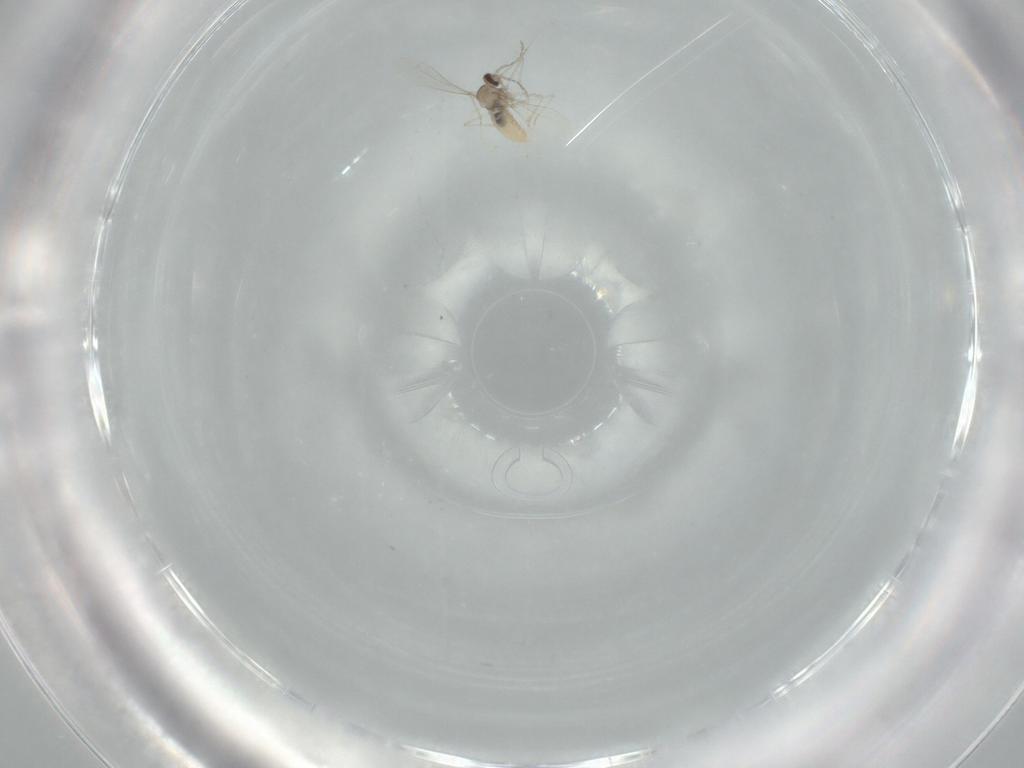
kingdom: Animalia
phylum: Arthropoda
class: Insecta
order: Diptera
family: Cecidomyiidae
